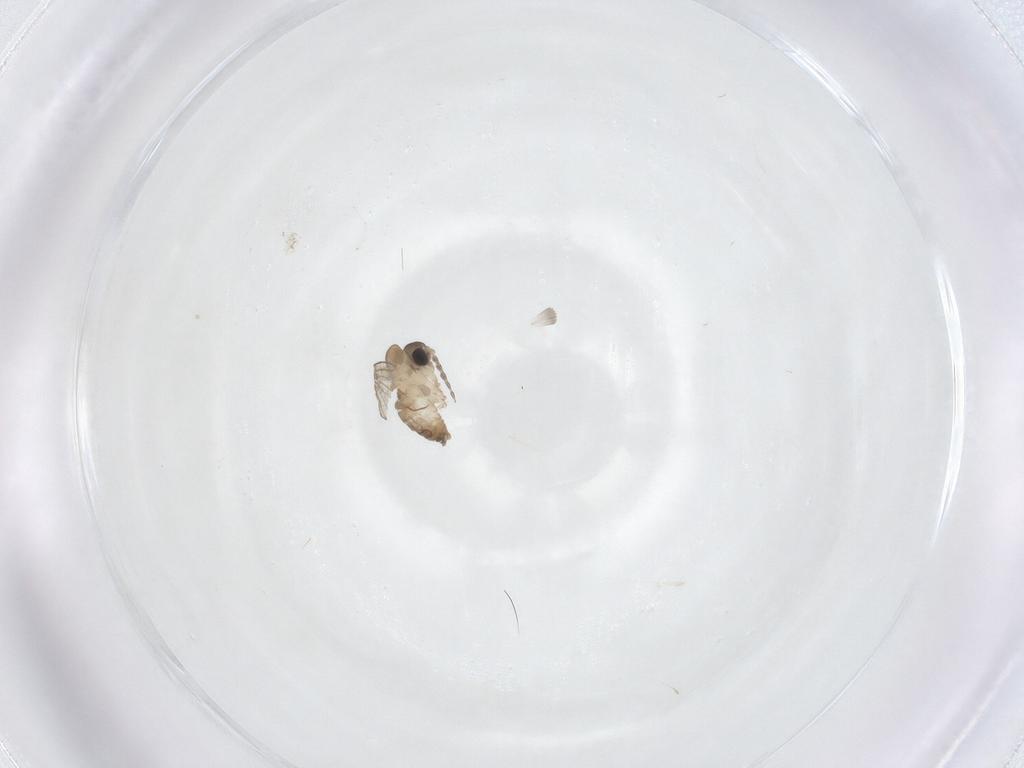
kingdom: Animalia
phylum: Arthropoda
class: Insecta
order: Diptera
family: Cecidomyiidae
